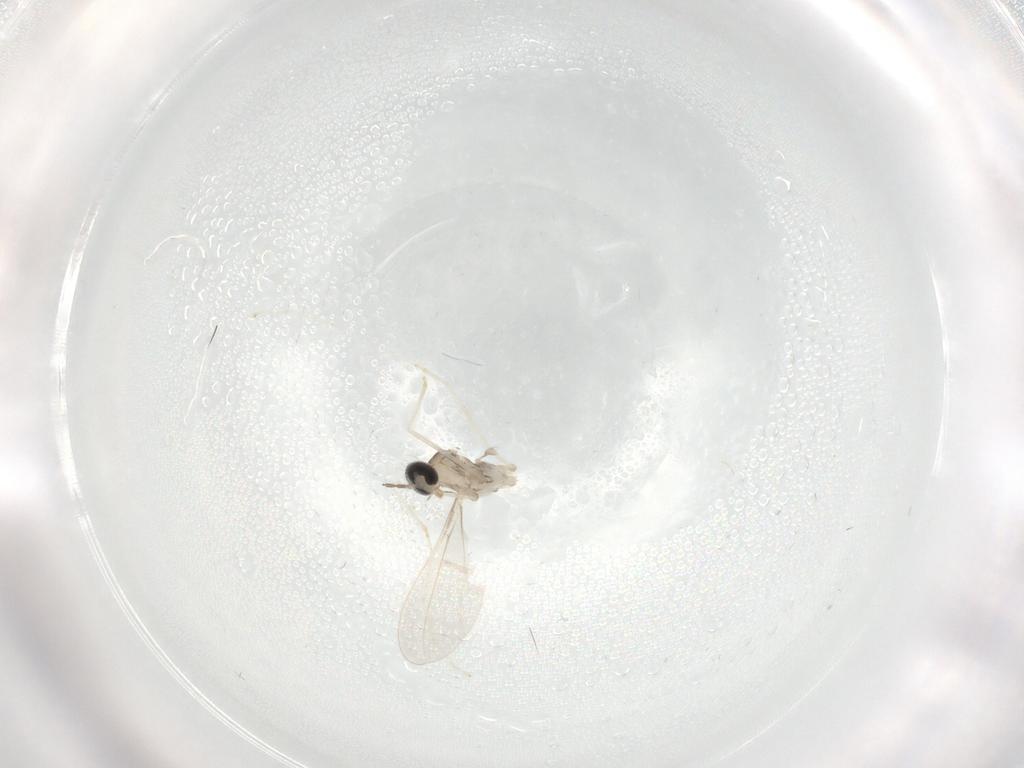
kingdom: Animalia
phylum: Arthropoda
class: Insecta
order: Diptera
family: Cecidomyiidae
